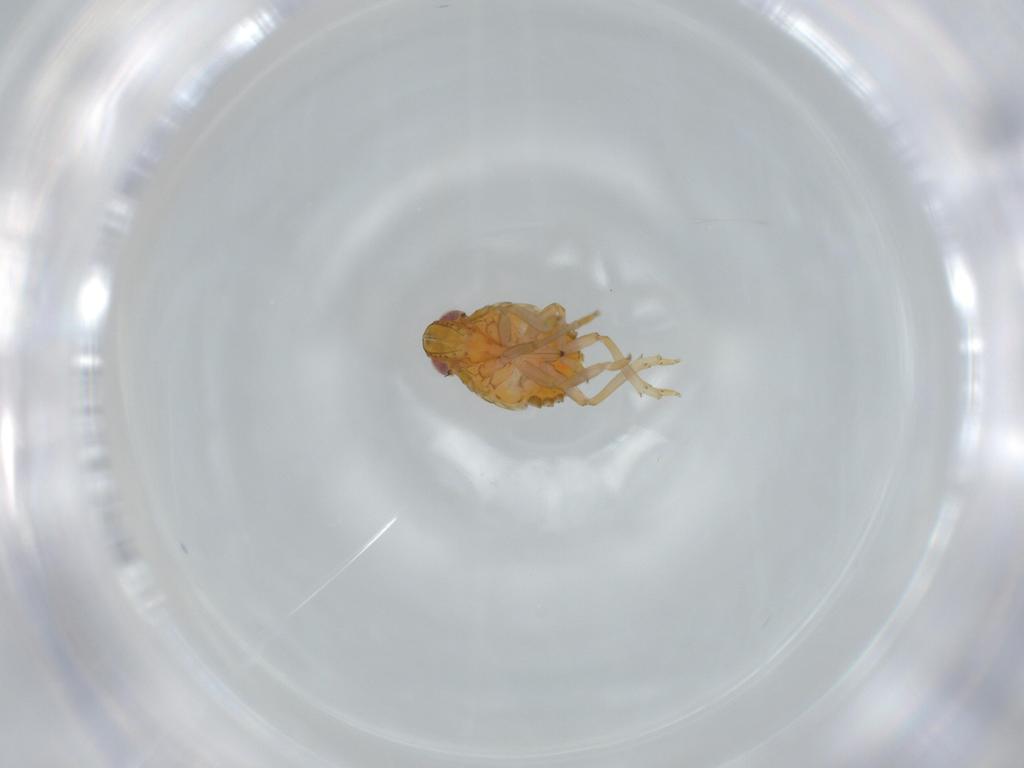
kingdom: Animalia
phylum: Arthropoda
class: Insecta
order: Hemiptera
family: Issidae
